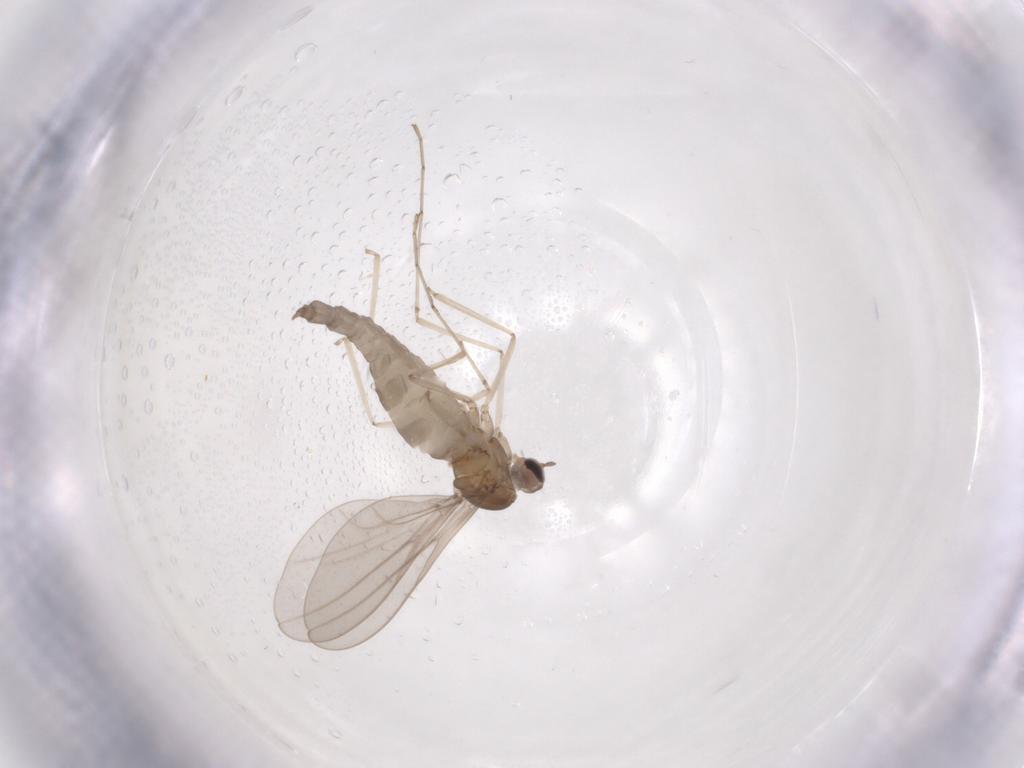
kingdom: Animalia
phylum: Arthropoda
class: Insecta
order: Diptera
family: Cecidomyiidae
